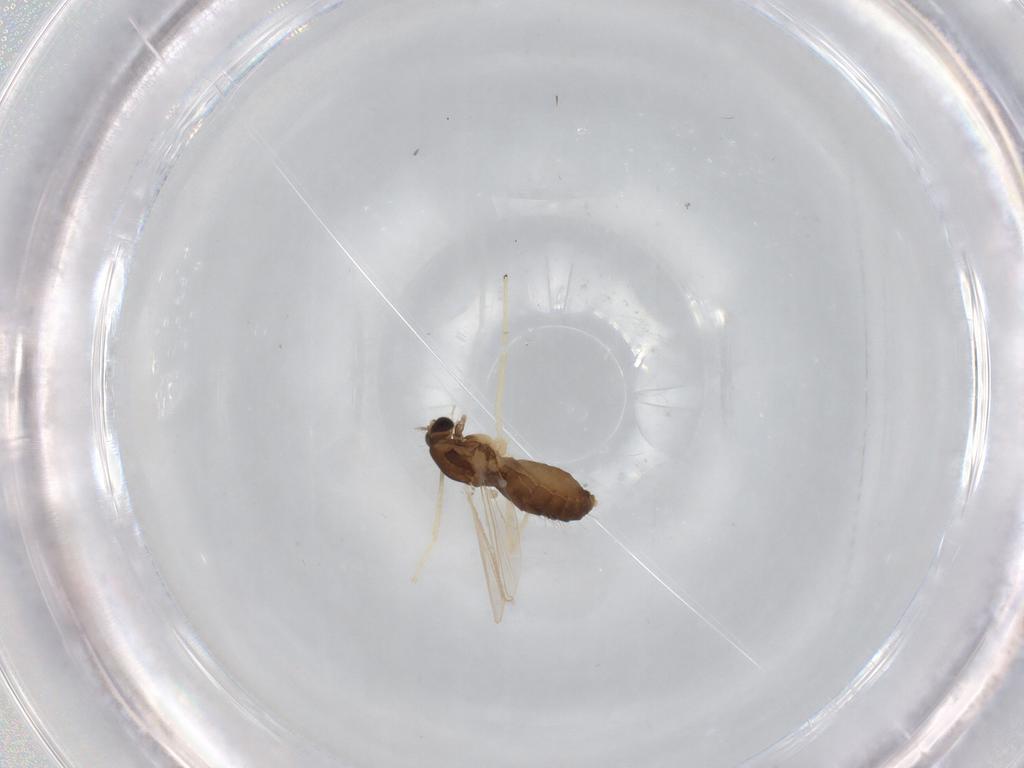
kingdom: Animalia
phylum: Arthropoda
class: Insecta
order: Diptera
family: Chironomidae
